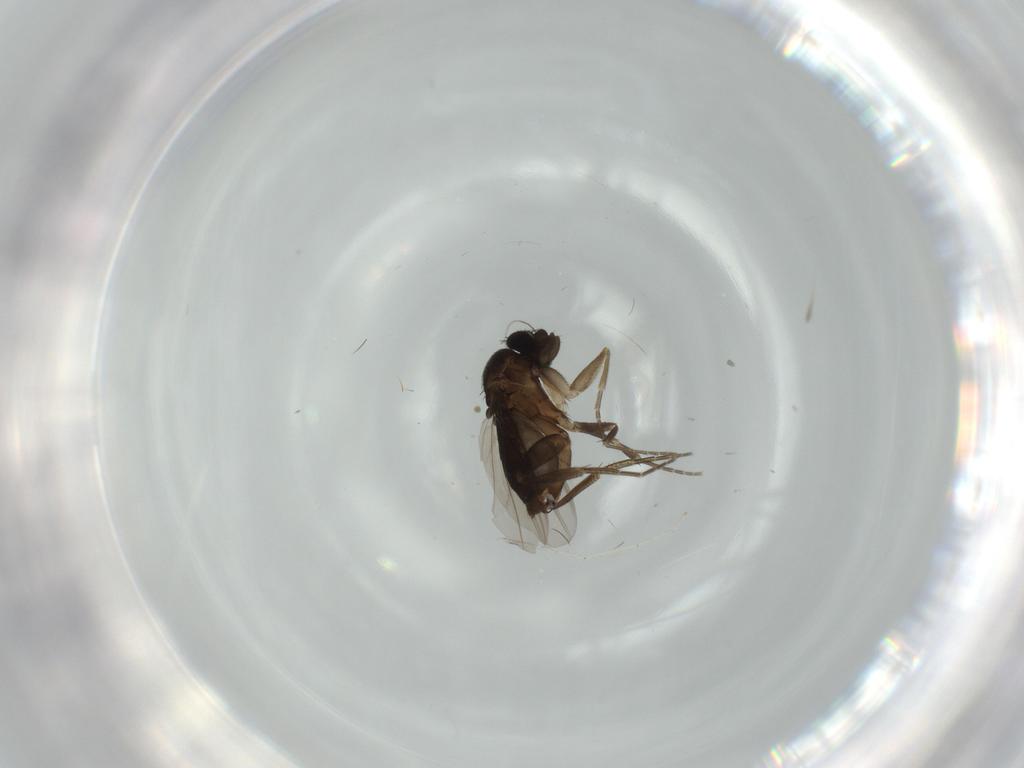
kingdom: Animalia
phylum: Arthropoda
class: Insecta
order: Diptera
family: Phoridae
